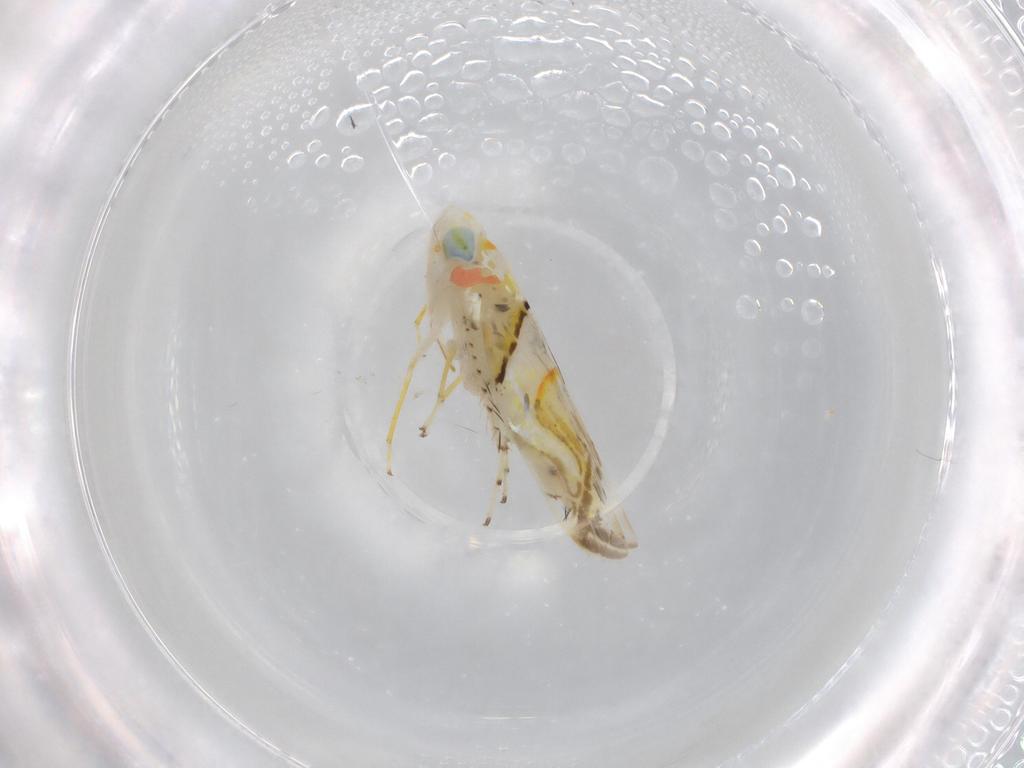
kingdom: Animalia
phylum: Arthropoda
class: Insecta
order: Hemiptera
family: Cicadellidae
